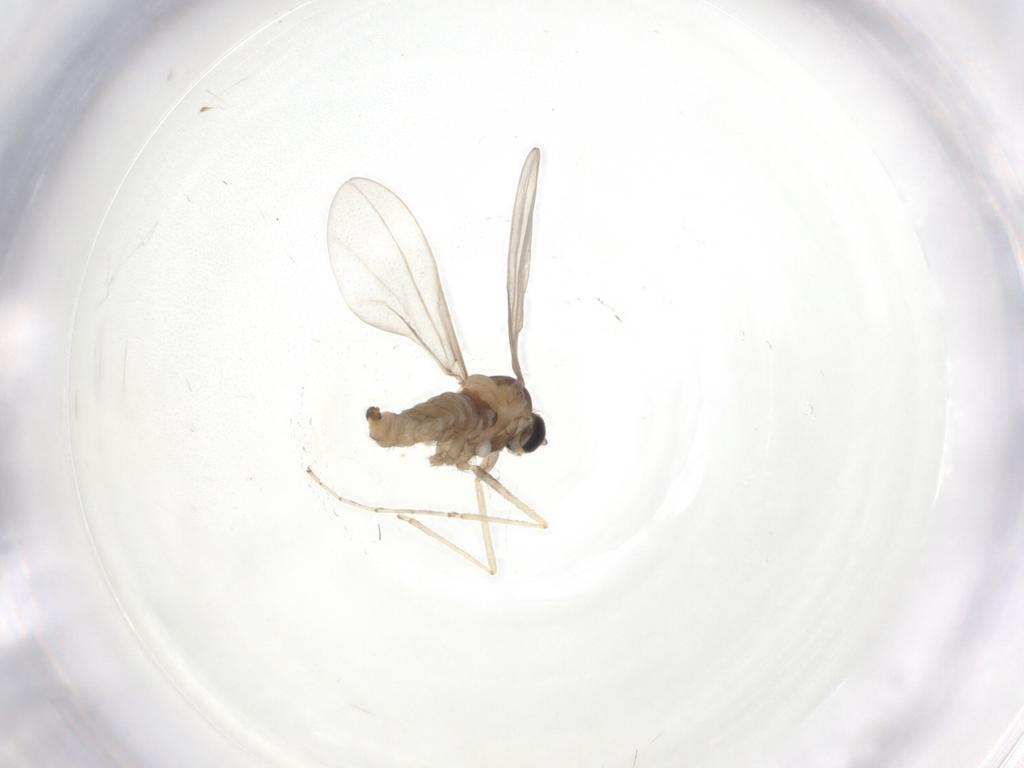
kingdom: Animalia
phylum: Arthropoda
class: Insecta
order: Diptera
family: Cecidomyiidae
